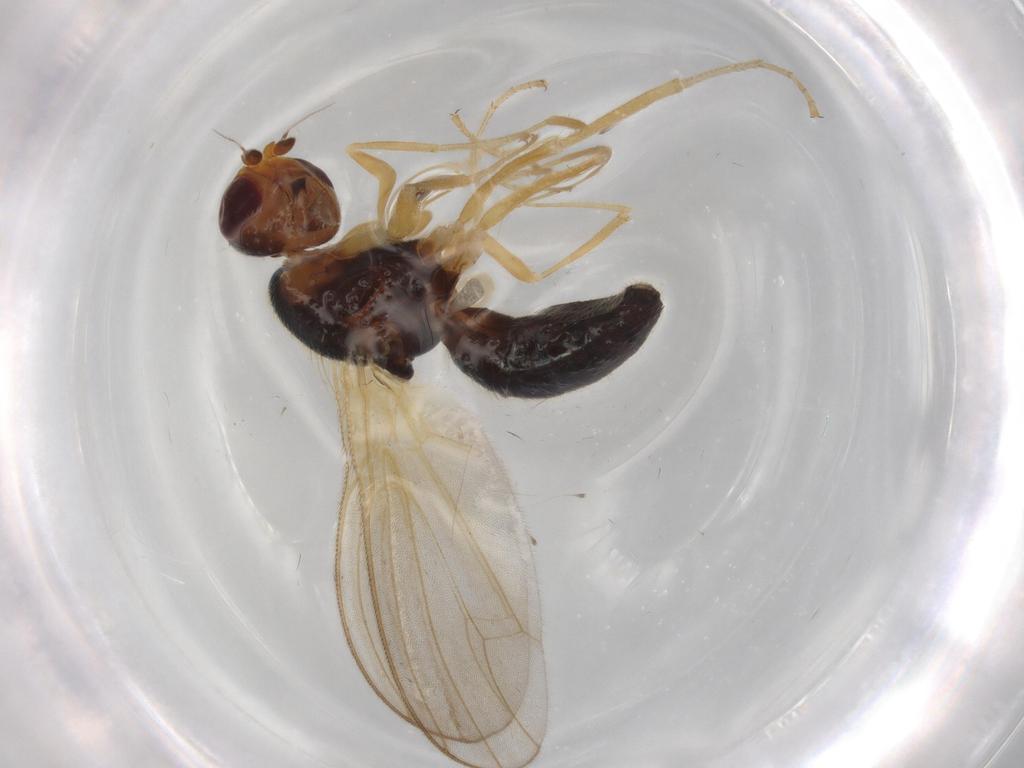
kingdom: Animalia
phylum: Arthropoda
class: Insecta
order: Diptera
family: Psilidae
